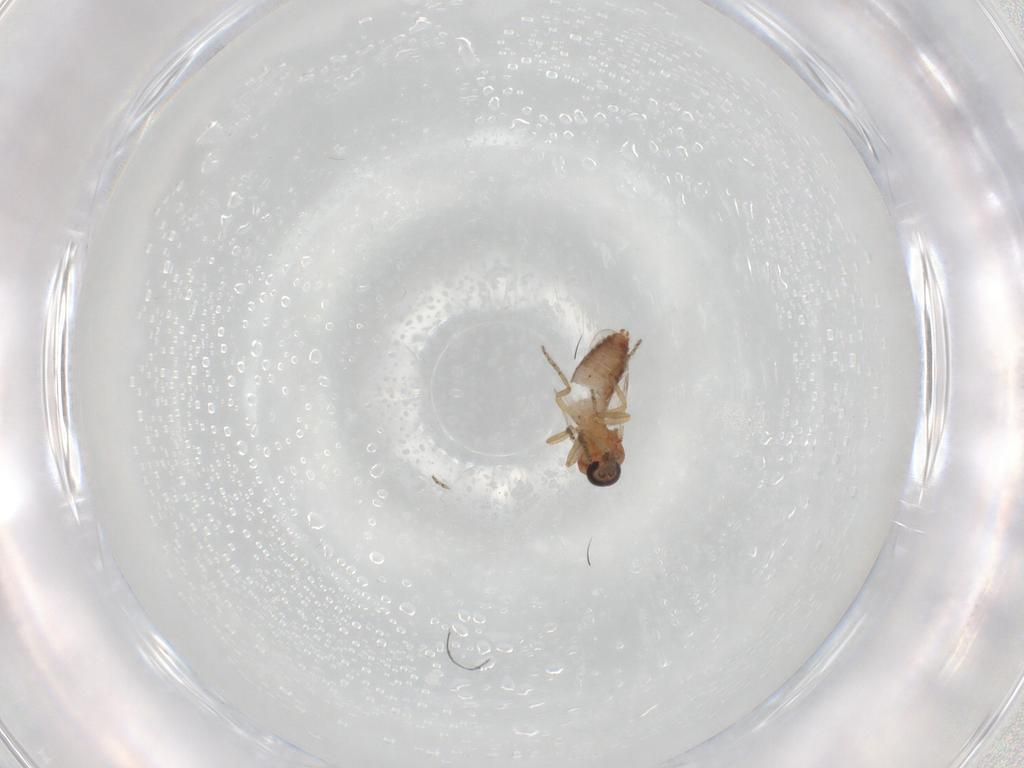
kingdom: Animalia
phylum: Arthropoda
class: Insecta
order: Diptera
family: Ceratopogonidae
